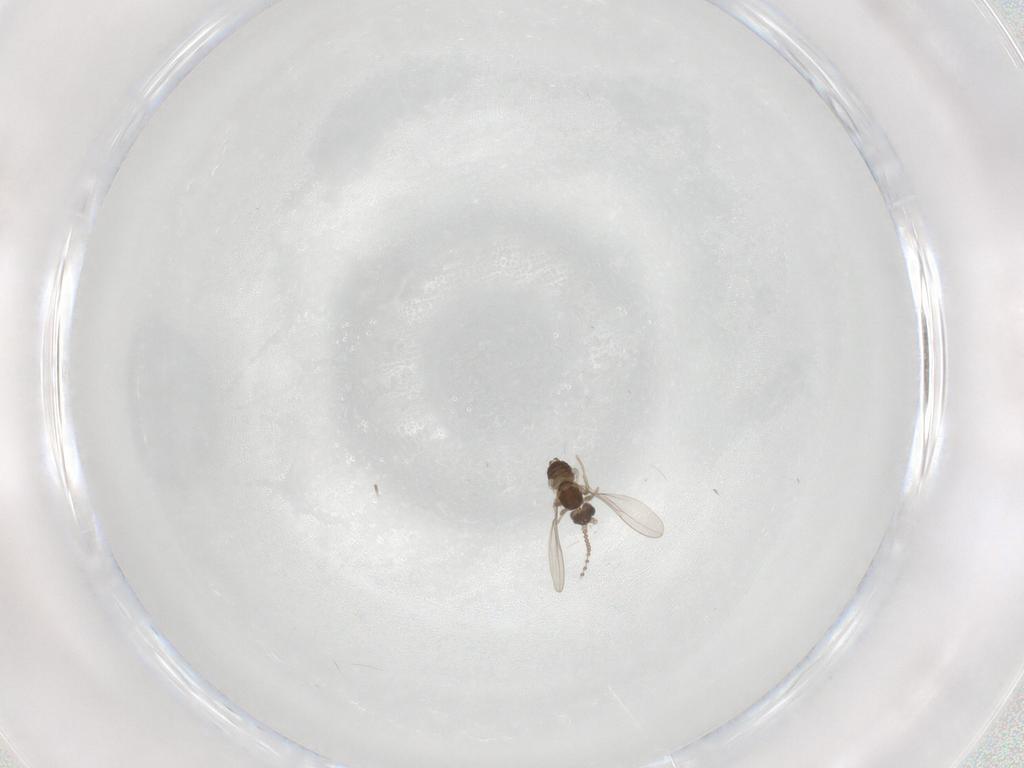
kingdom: Animalia
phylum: Arthropoda
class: Insecta
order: Diptera
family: Cecidomyiidae
